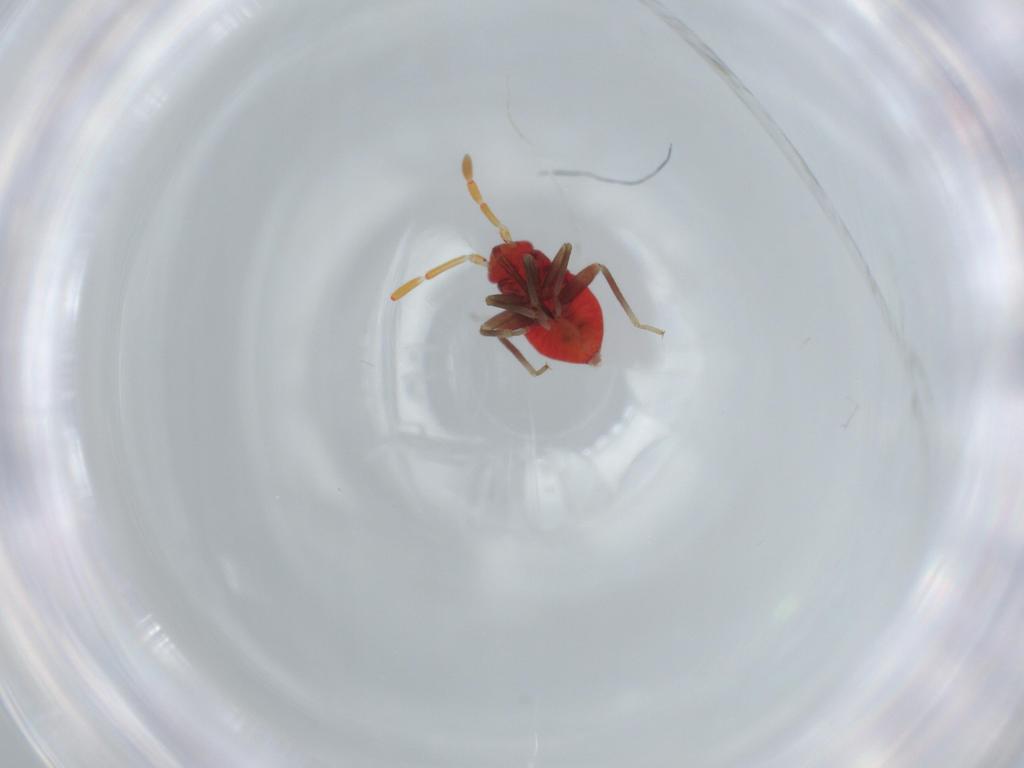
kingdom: Animalia
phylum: Arthropoda
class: Insecta
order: Hemiptera
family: Miridae
